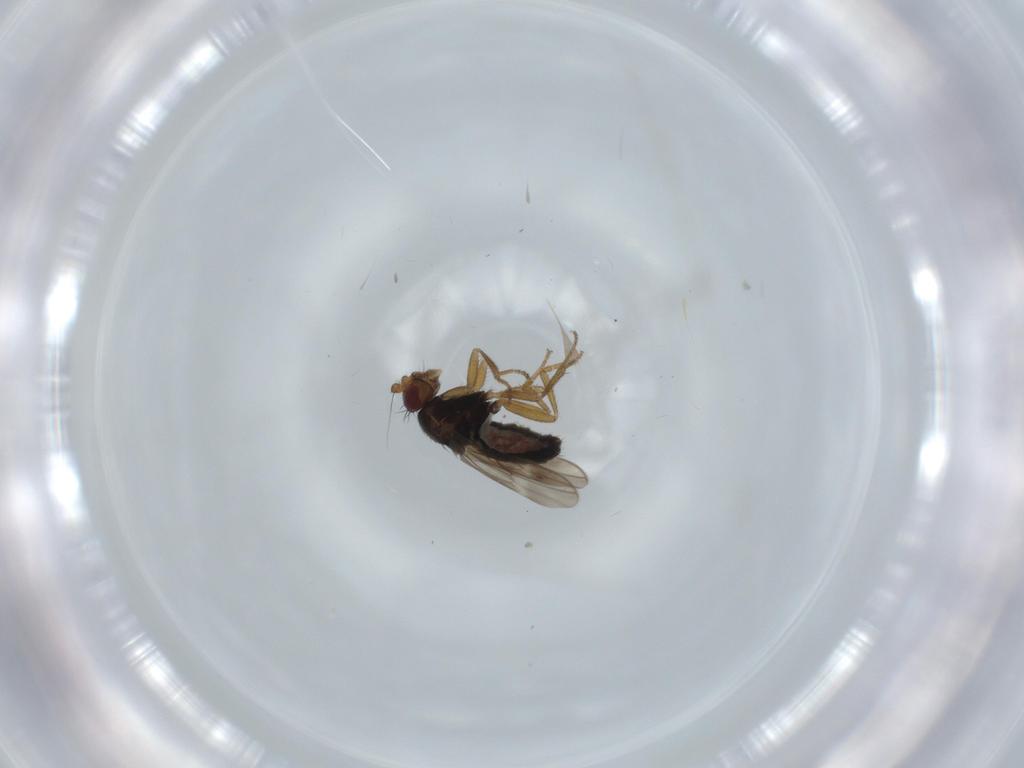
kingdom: Animalia
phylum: Arthropoda
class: Insecta
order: Diptera
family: Sphaeroceridae
